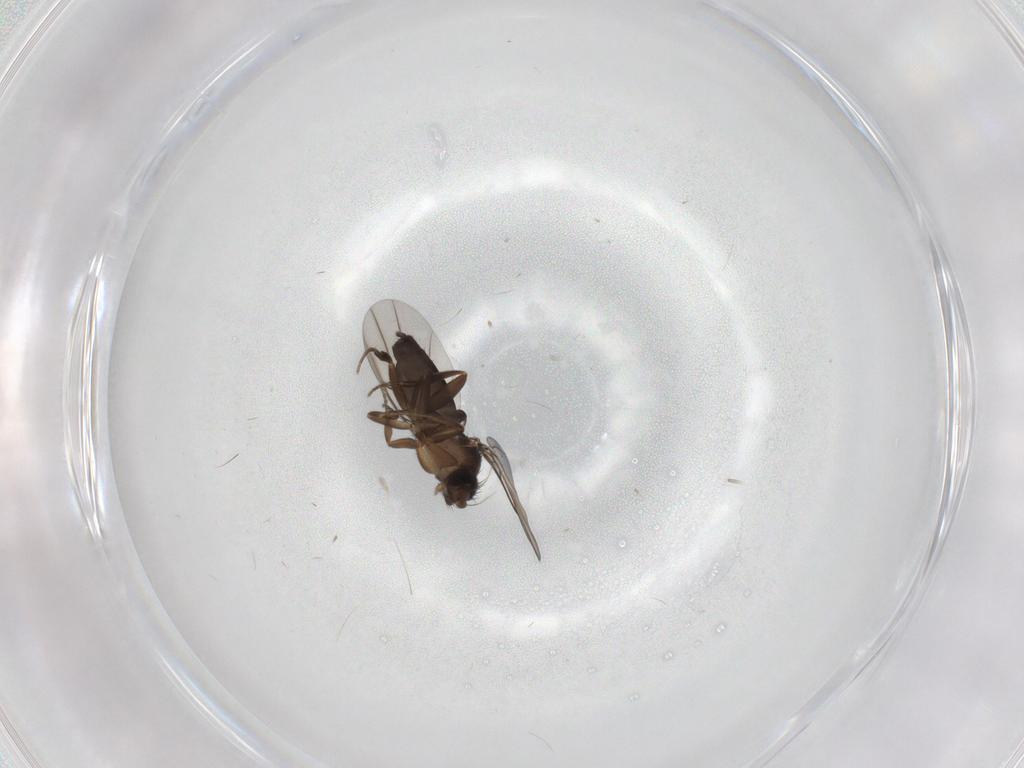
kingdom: Animalia
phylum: Arthropoda
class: Insecta
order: Diptera
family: Phoridae
